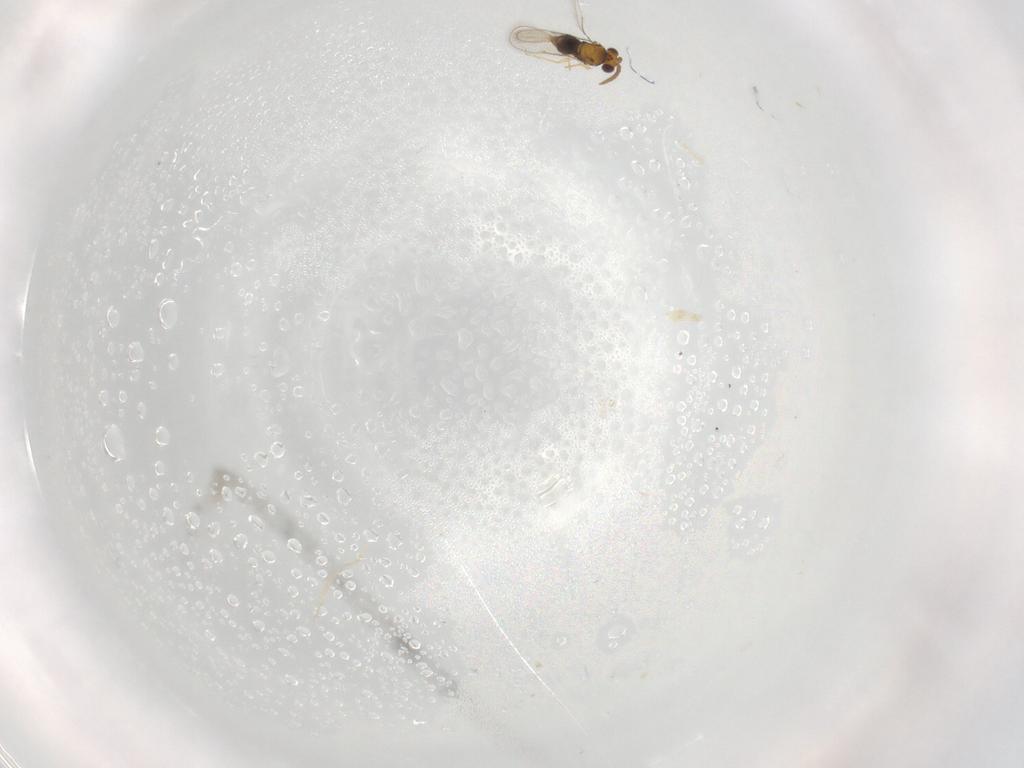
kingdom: Animalia
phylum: Arthropoda
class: Insecta
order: Hymenoptera
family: Aphelinidae
